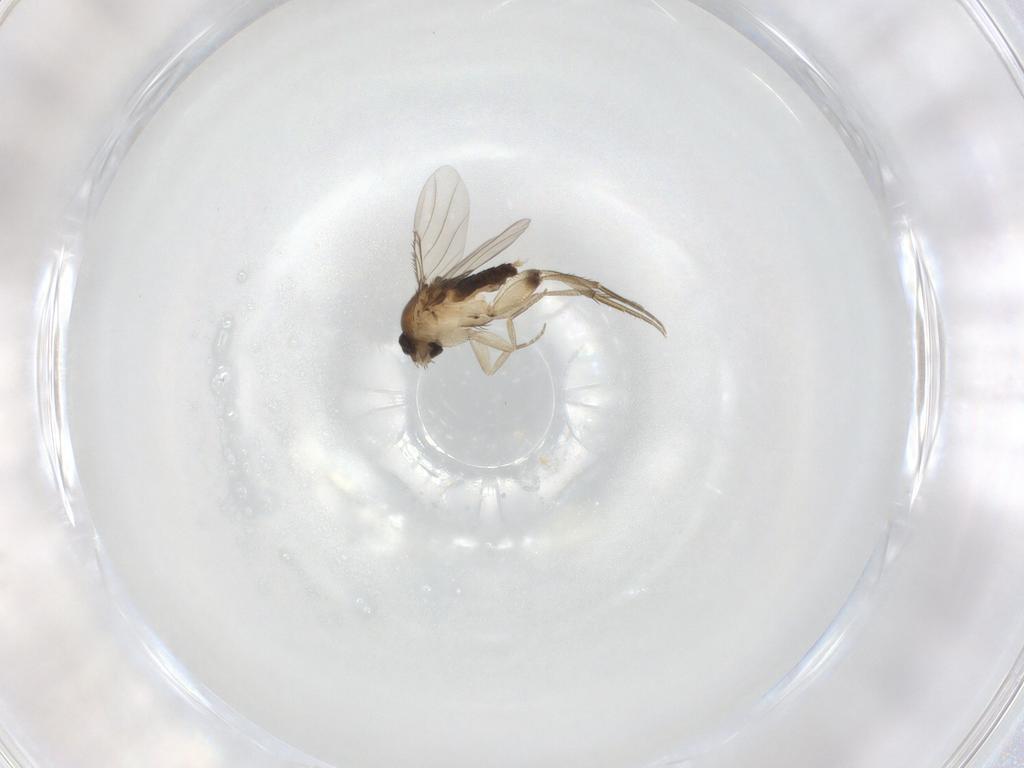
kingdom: Animalia
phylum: Arthropoda
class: Insecta
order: Diptera
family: Phoridae
